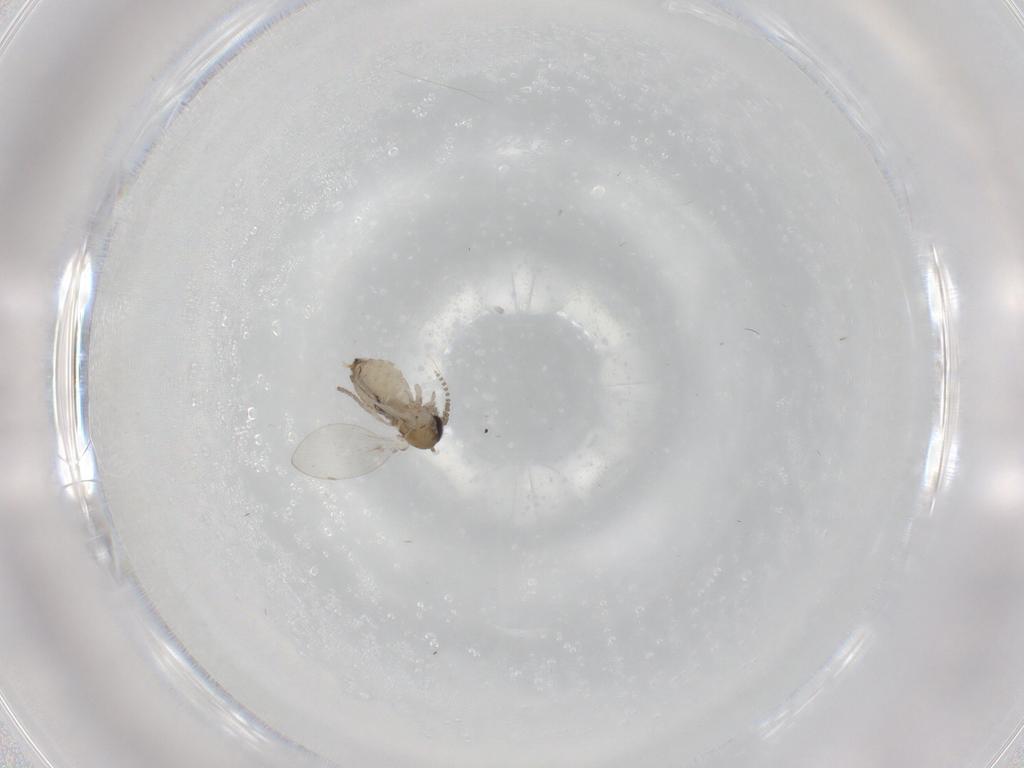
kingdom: Animalia
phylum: Arthropoda
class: Insecta
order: Diptera
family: Psychodidae
